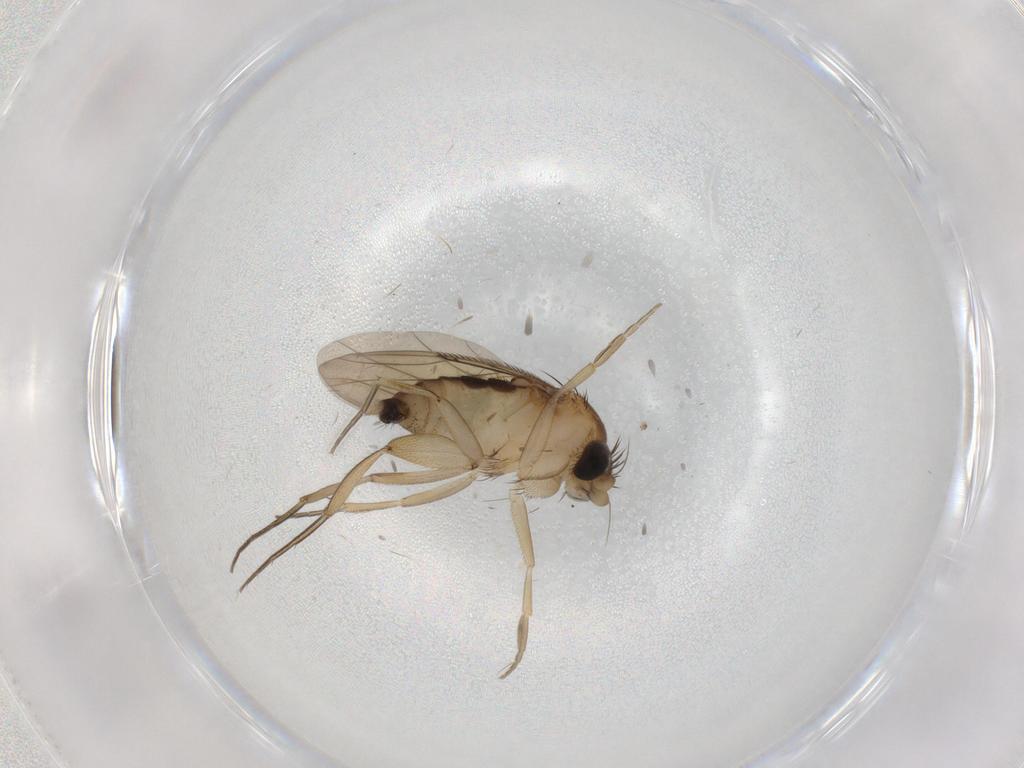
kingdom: Animalia
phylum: Arthropoda
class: Insecta
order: Diptera
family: Phoridae
